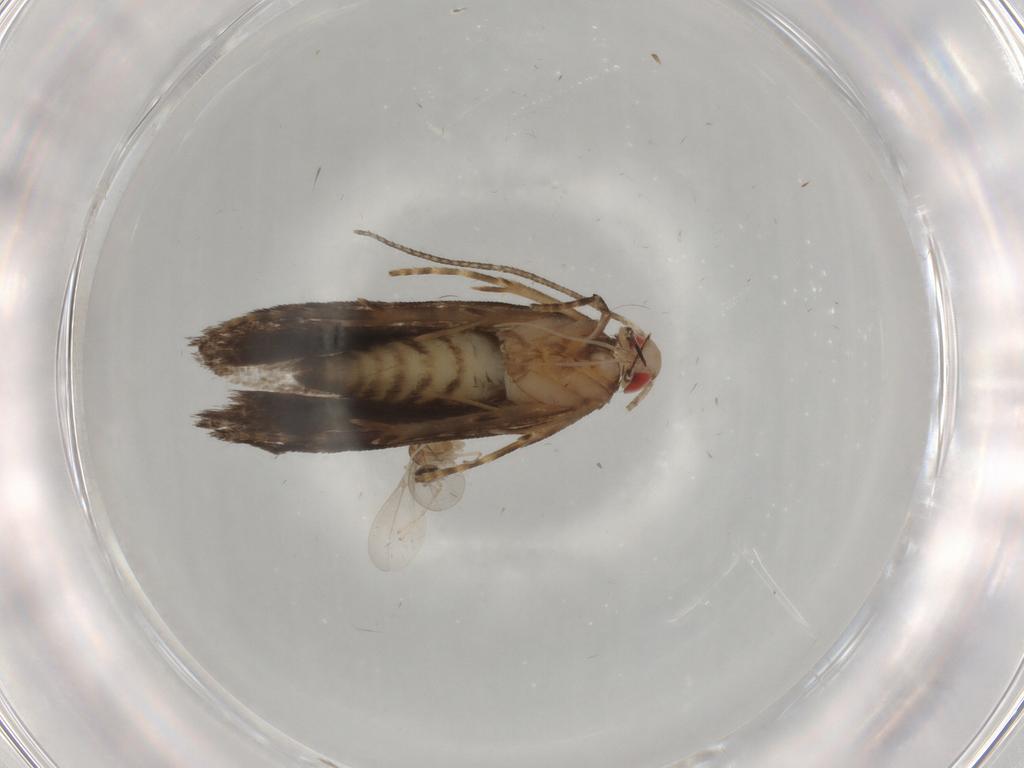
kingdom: Animalia
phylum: Arthropoda
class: Insecta
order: Lepidoptera
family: Gelechiidae
